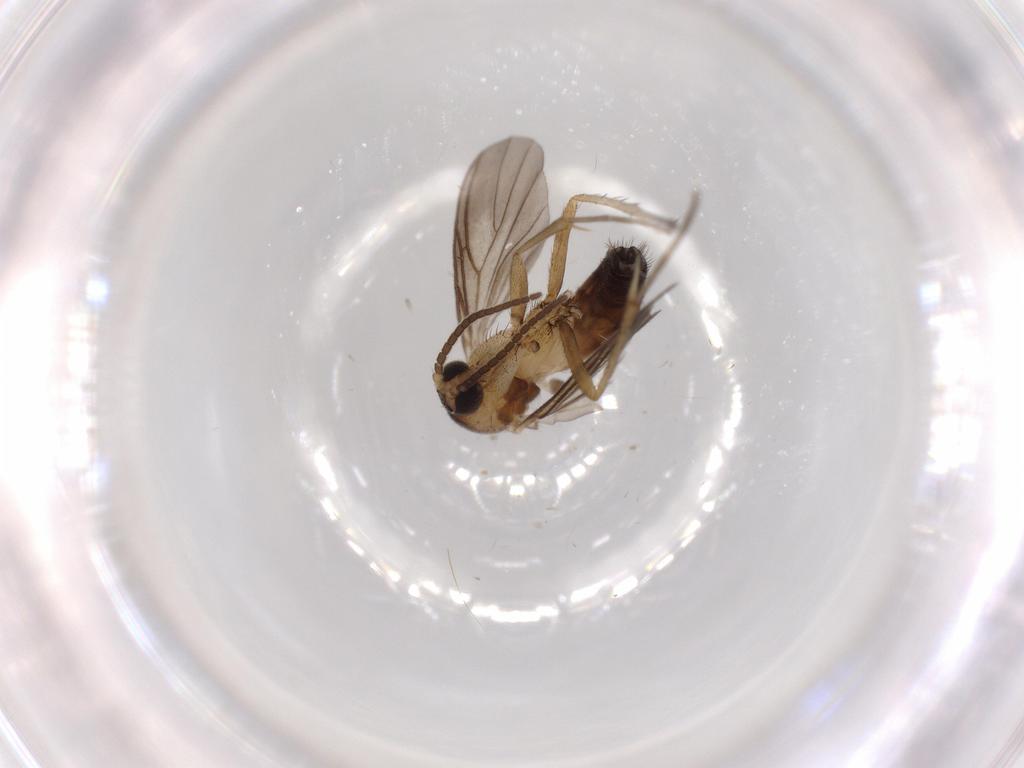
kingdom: Animalia
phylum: Arthropoda
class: Insecta
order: Diptera
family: Mycetophilidae
